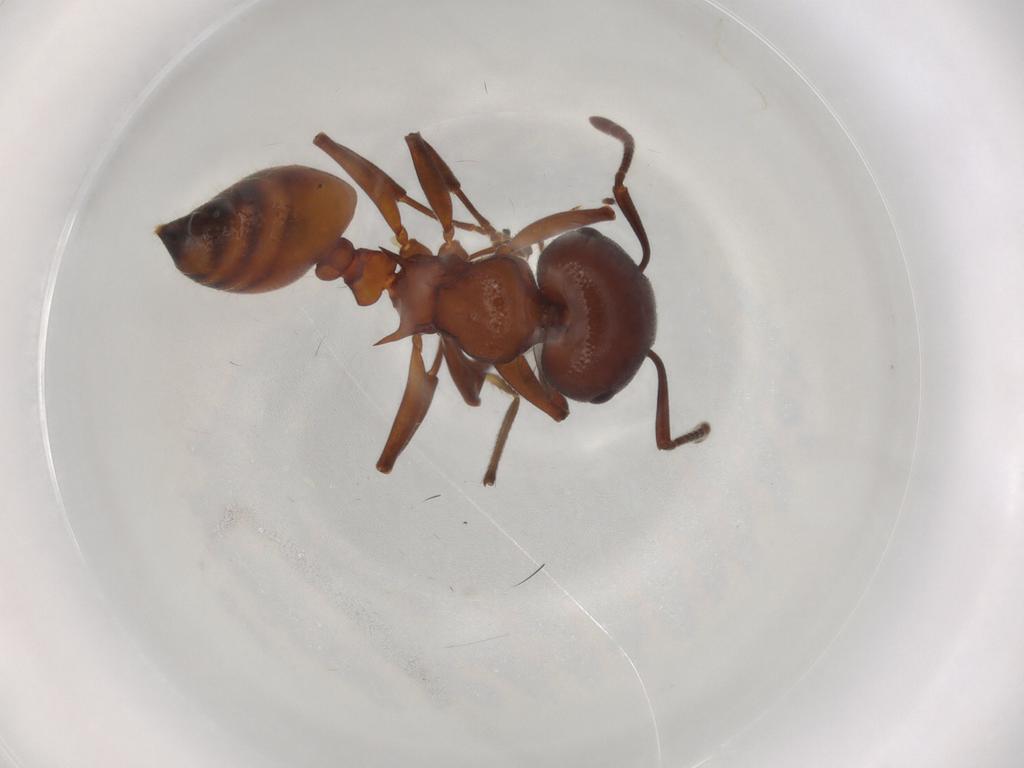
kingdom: Animalia
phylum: Arthropoda
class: Insecta
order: Hymenoptera
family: Formicidae
